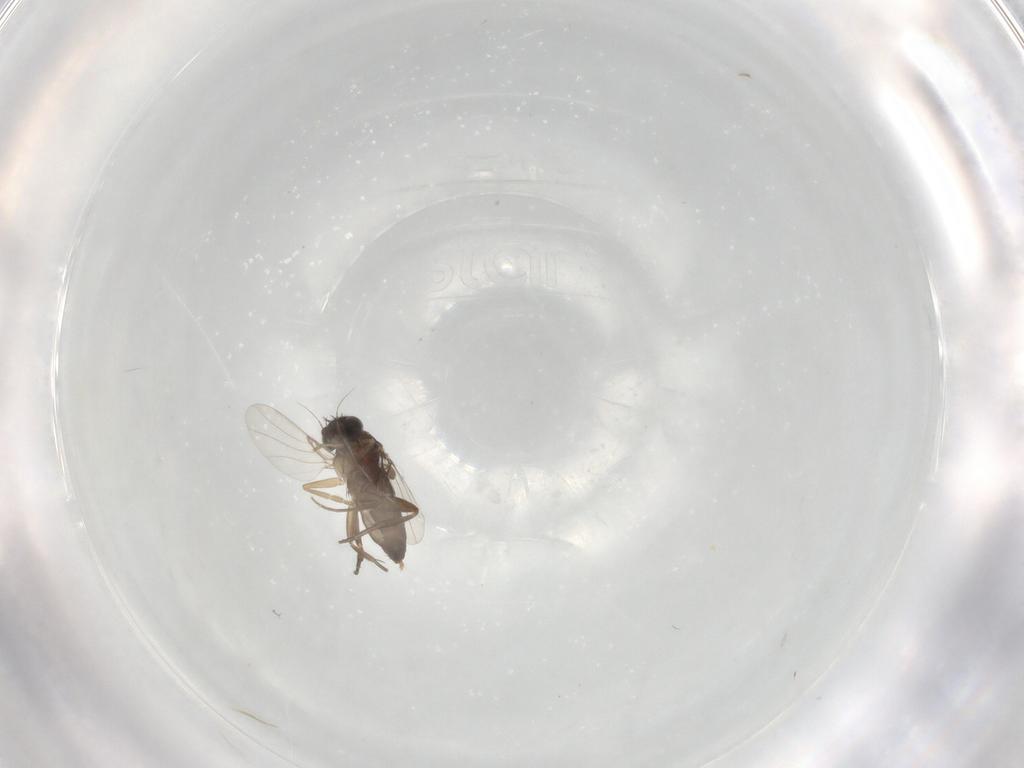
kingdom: Animalia
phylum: Arthropoda
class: Insecta
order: Diptera
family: Phoridae
